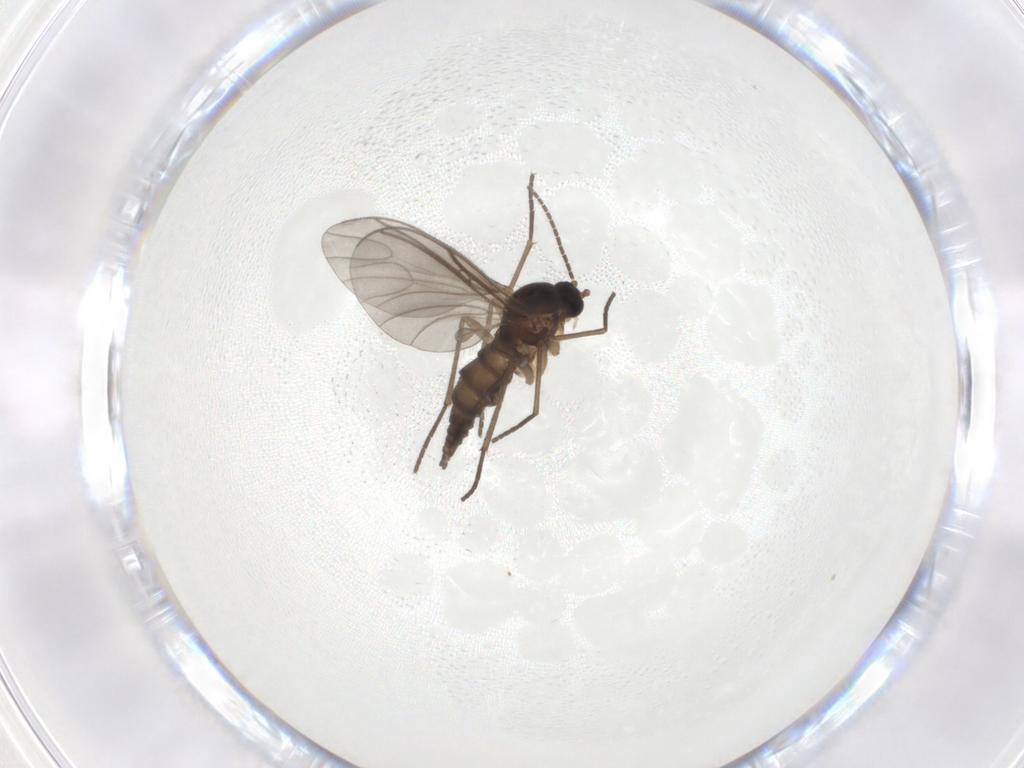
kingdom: Animalia
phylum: Arthropoda
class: Insecta
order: Diptera
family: Sciaridae
